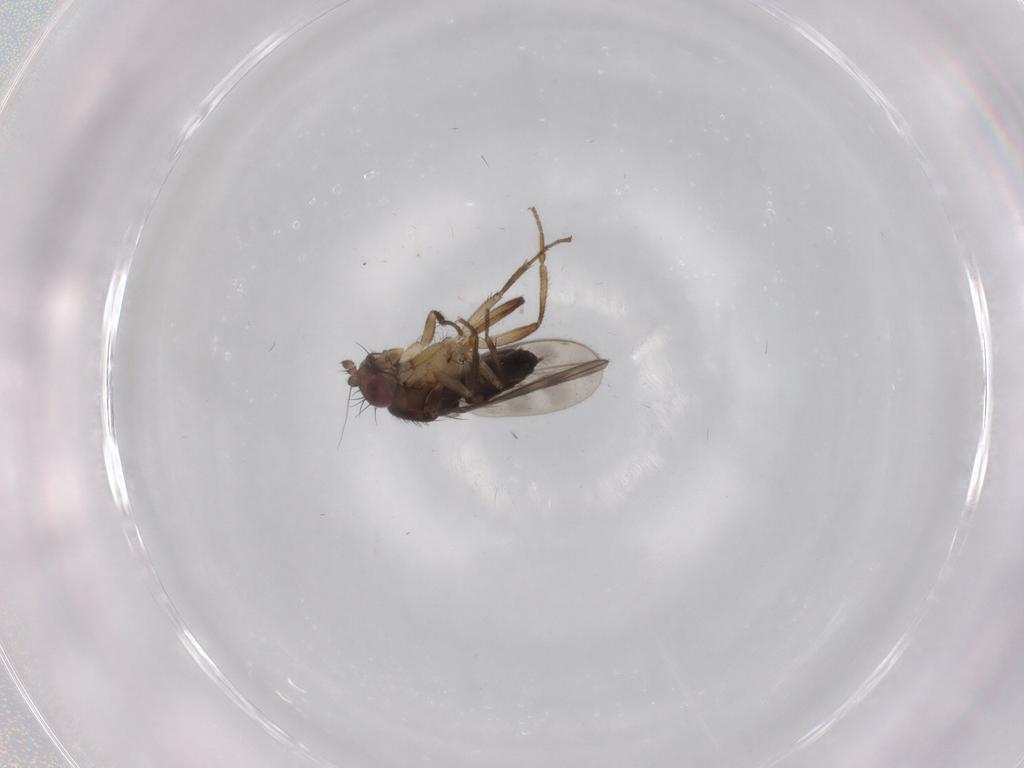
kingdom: Animalia
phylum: Arthropoda
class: Insecta
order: Diptera
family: Sphaeroceridae
